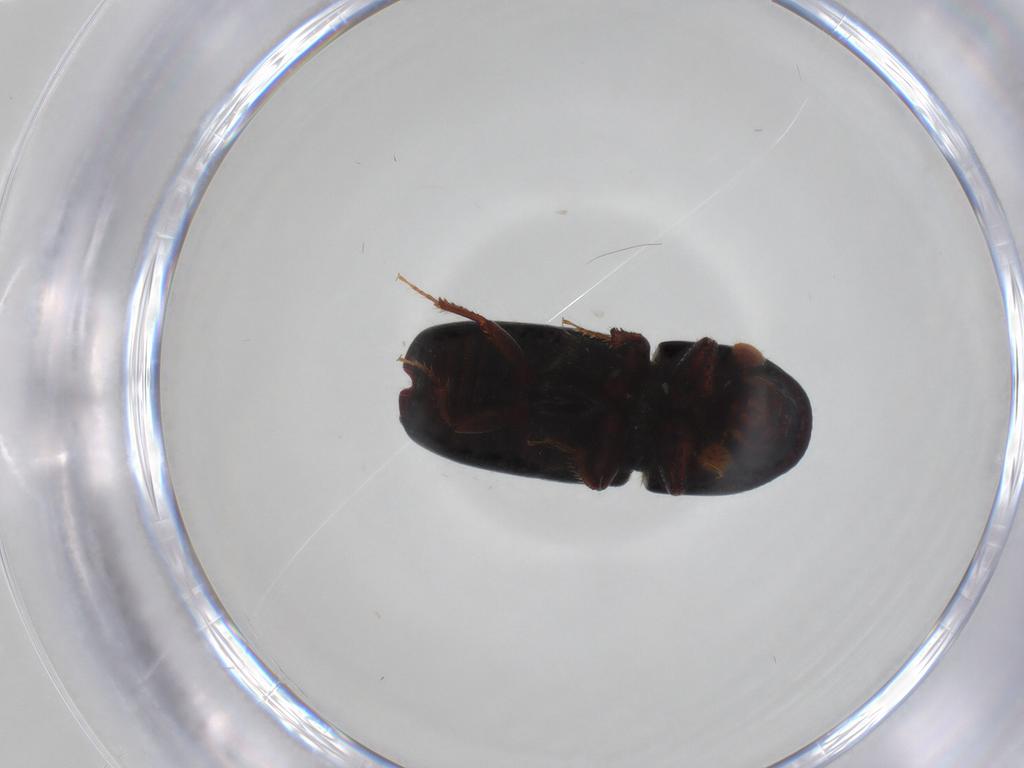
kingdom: Animalia
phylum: Arthropoda
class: Insecta
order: Coleoptera
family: Elateridae
